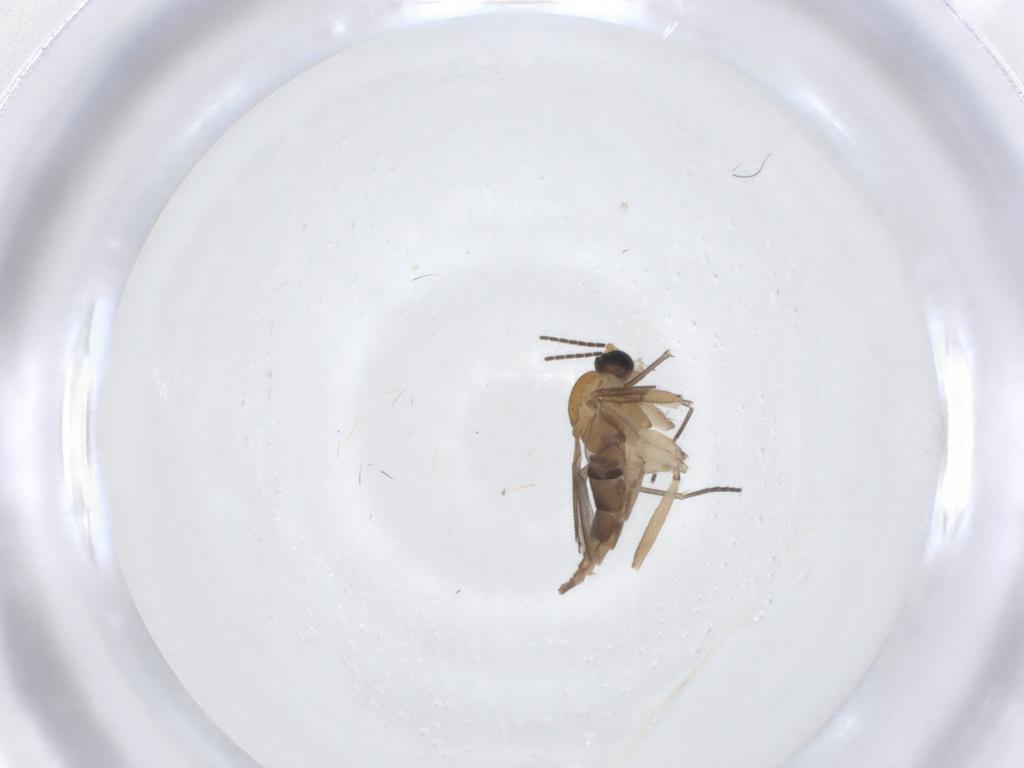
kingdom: Animalia
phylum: Arthropoda
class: Insecta
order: Diptera
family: Sciaridae
